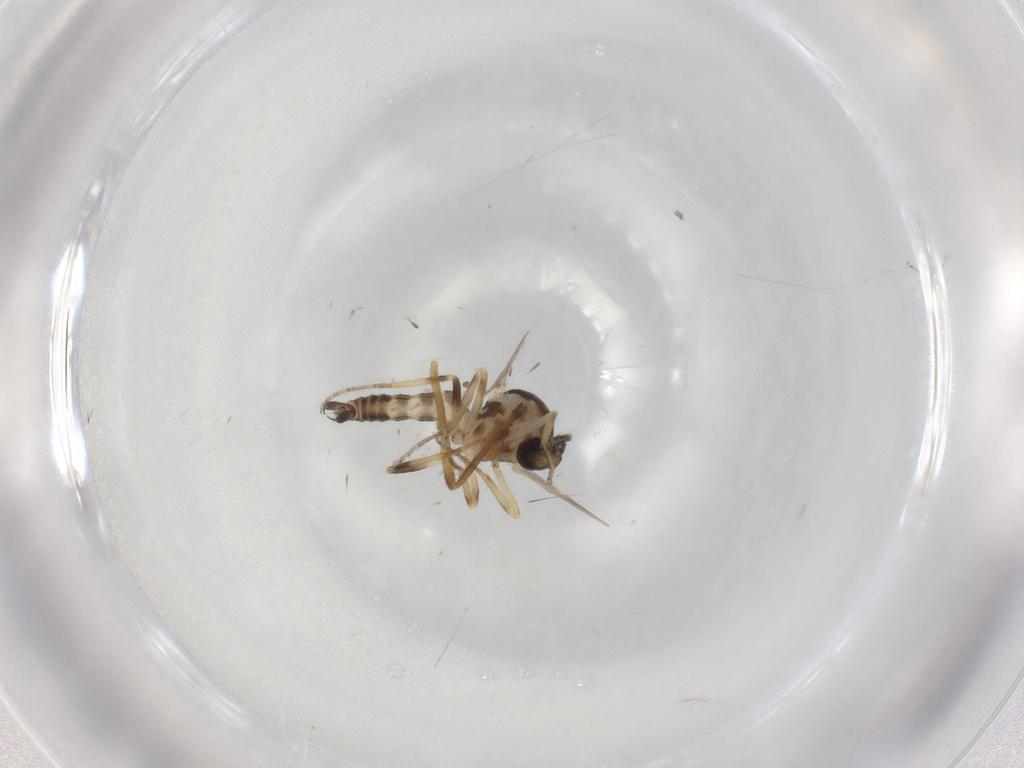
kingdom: Animalia
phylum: Arthropoda
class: Insecta
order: Diptera
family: Ceratopogonidae
